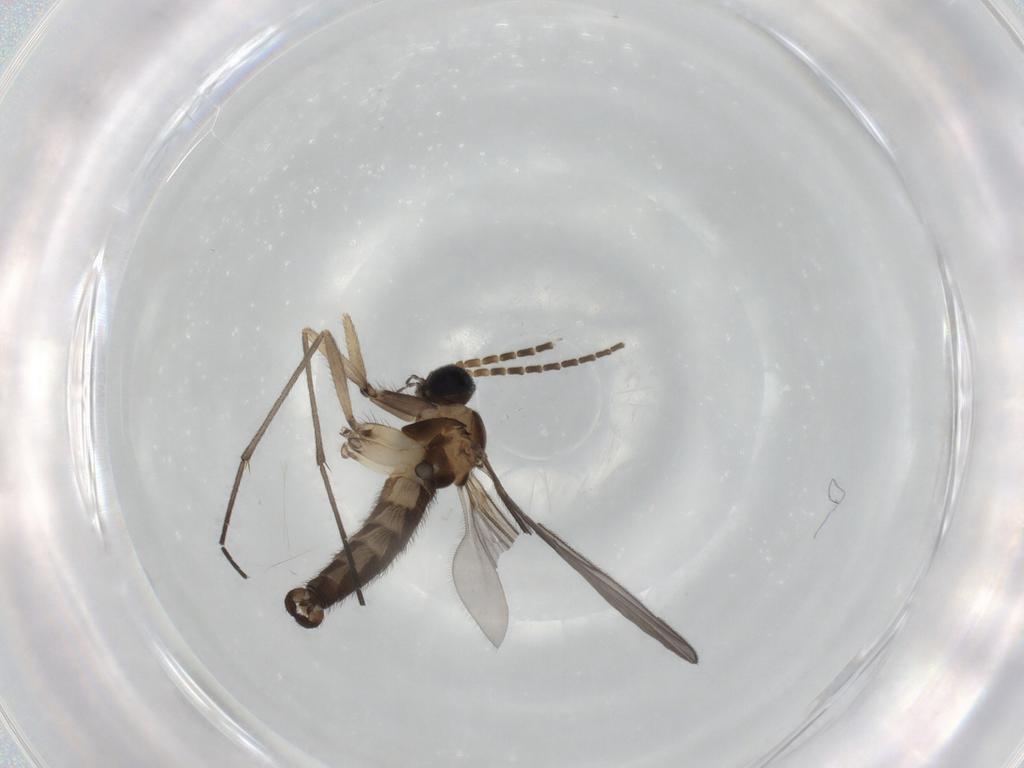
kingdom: Animalia
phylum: Arthropoda
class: Insecta
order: Diptera
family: Sciaridae
